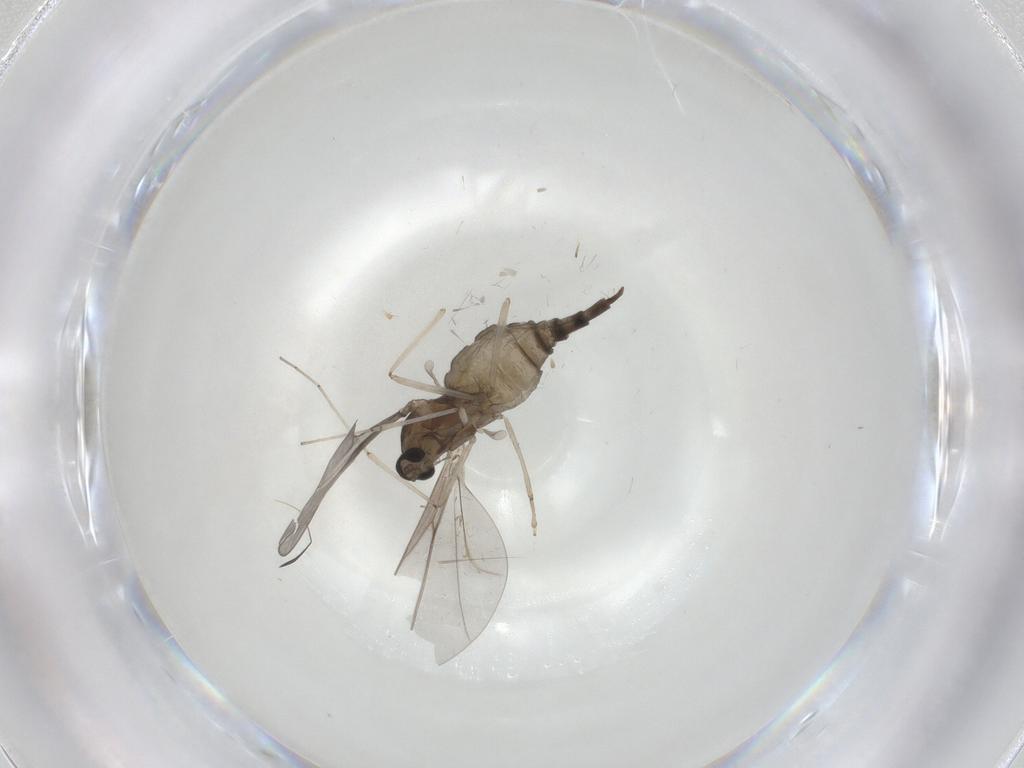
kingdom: Animalia
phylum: Arthropoda
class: Insecta
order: Diptera
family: Cecidomyiidae
